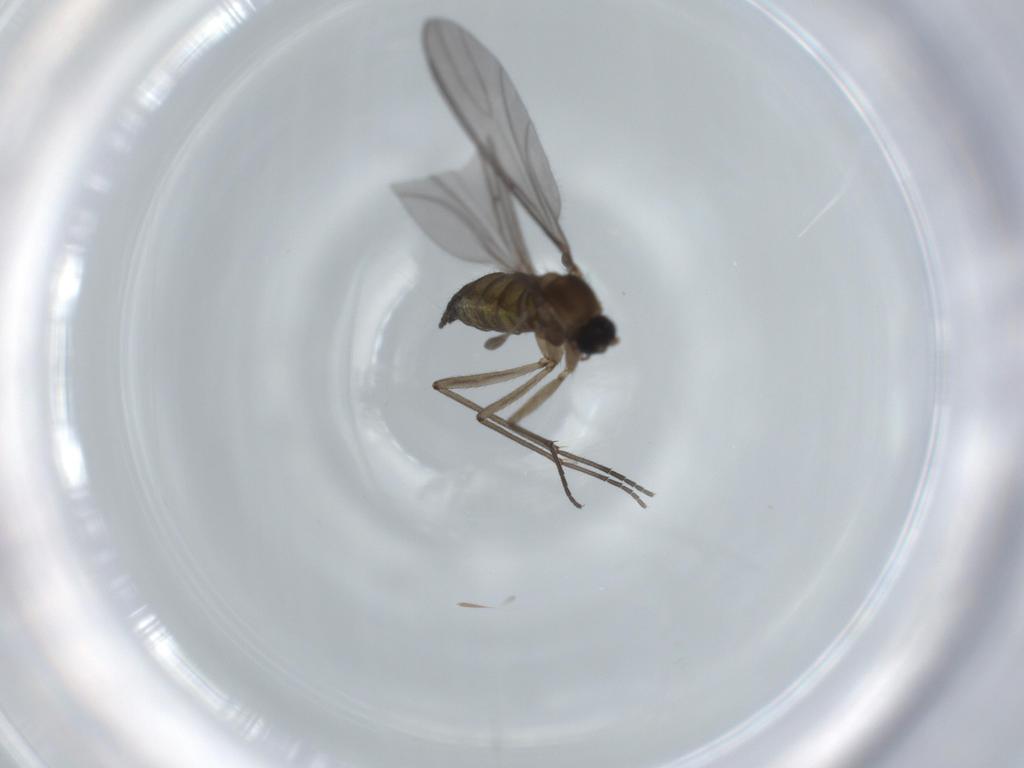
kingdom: Animalia
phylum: Arthropoda
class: Insecta
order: Diptera
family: Sciaridae
